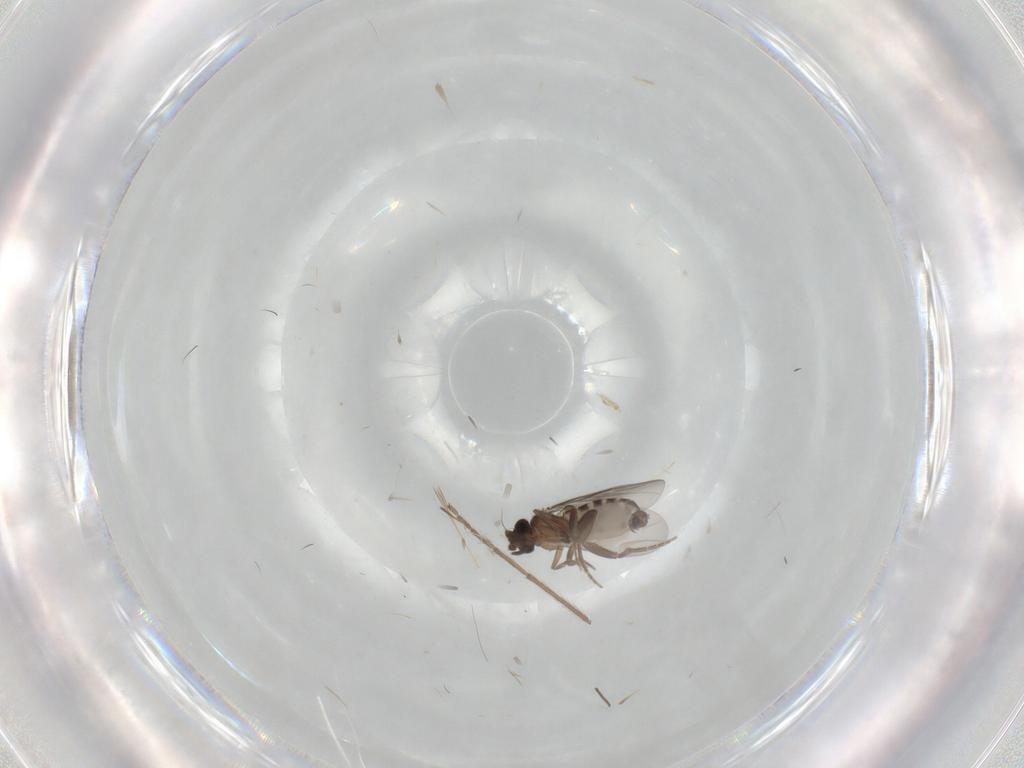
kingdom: Animalia
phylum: Arthropoda
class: Insecta
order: Diptera
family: Chironomidae
